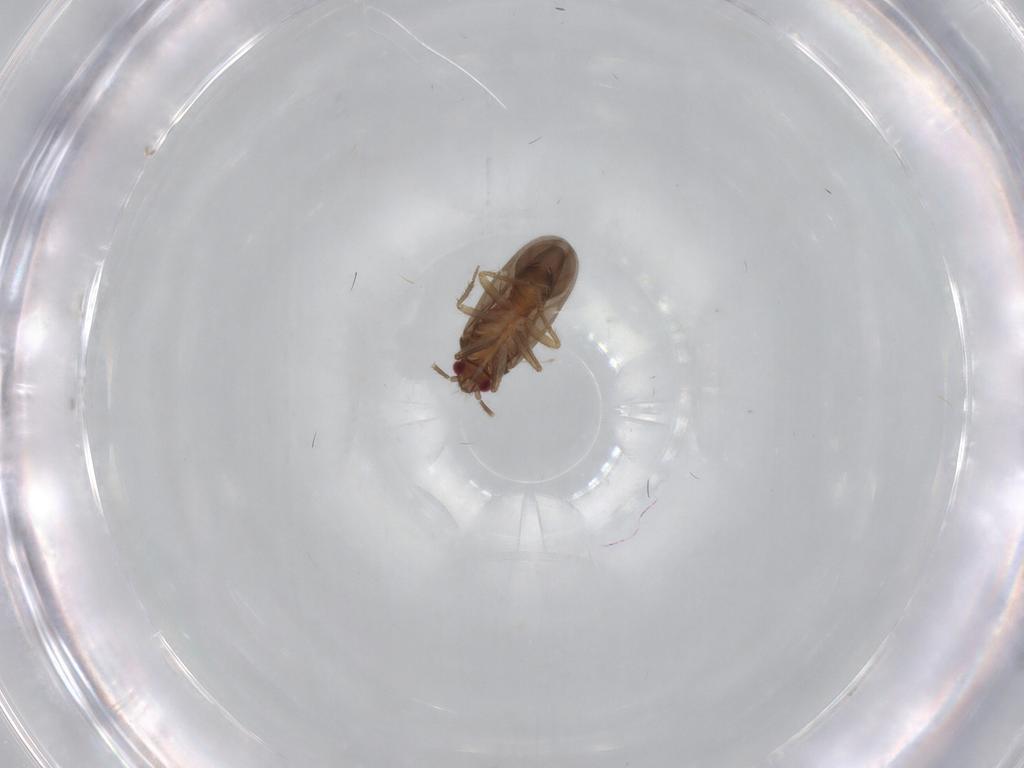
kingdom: Animalia
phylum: Arthropoda
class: Insecta
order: Hemiptera
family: Ceratocombidae
